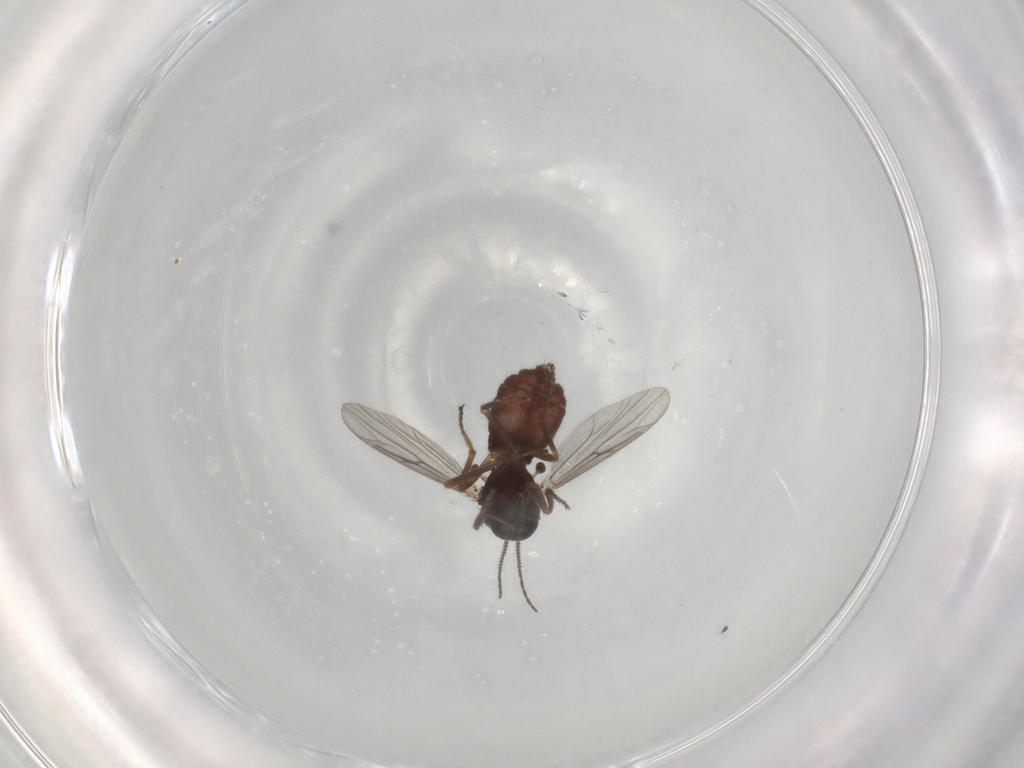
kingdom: Animalia
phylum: Arthropoda
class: Insecta
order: Diptera
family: Ceratopogonidae
